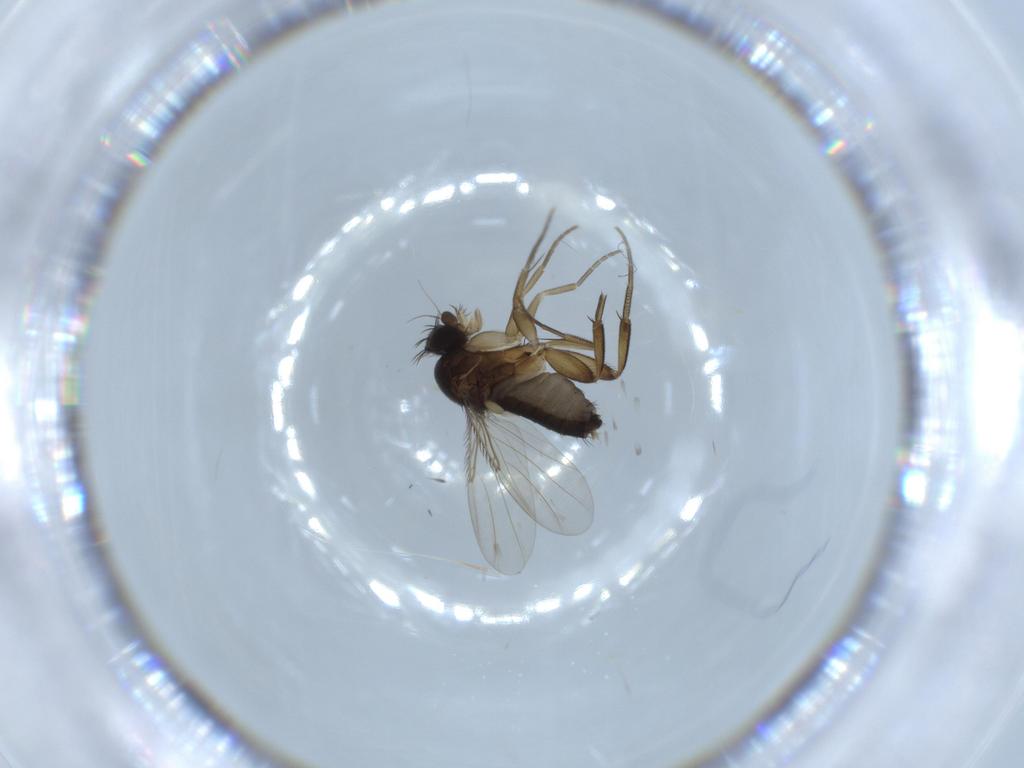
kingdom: Animalia
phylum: Arthropoda
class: Insecta
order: Diptera
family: Phoridae
